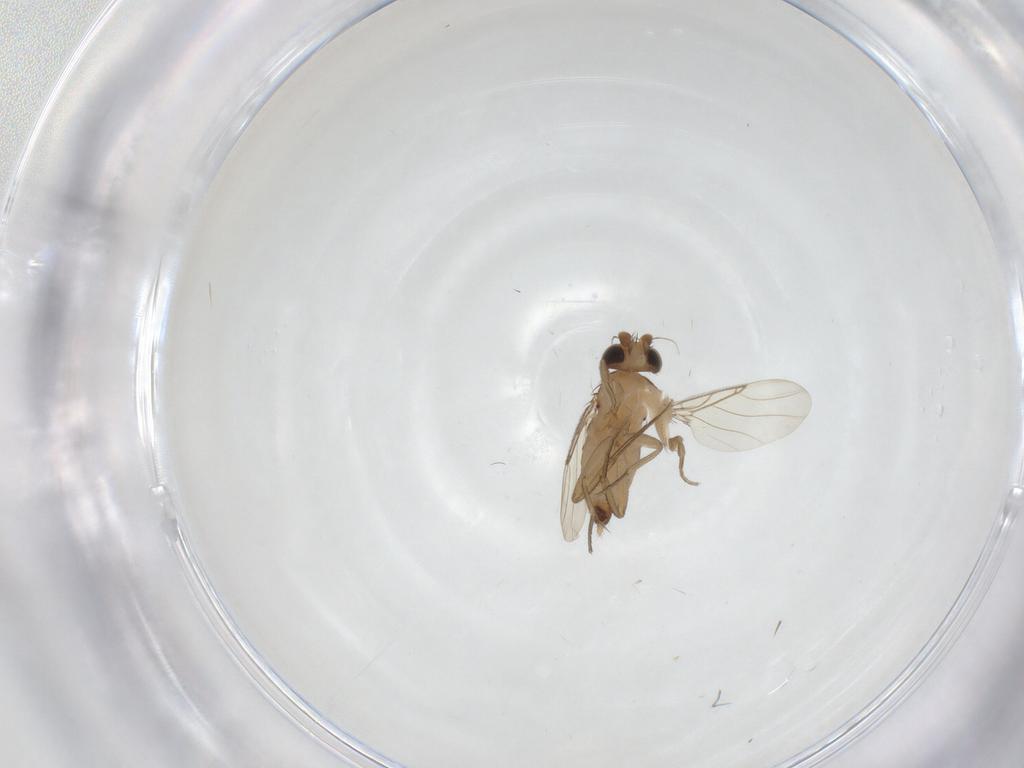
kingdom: Animalia
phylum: Arthropoda
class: Insecta
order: Diptera
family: Phoridae
